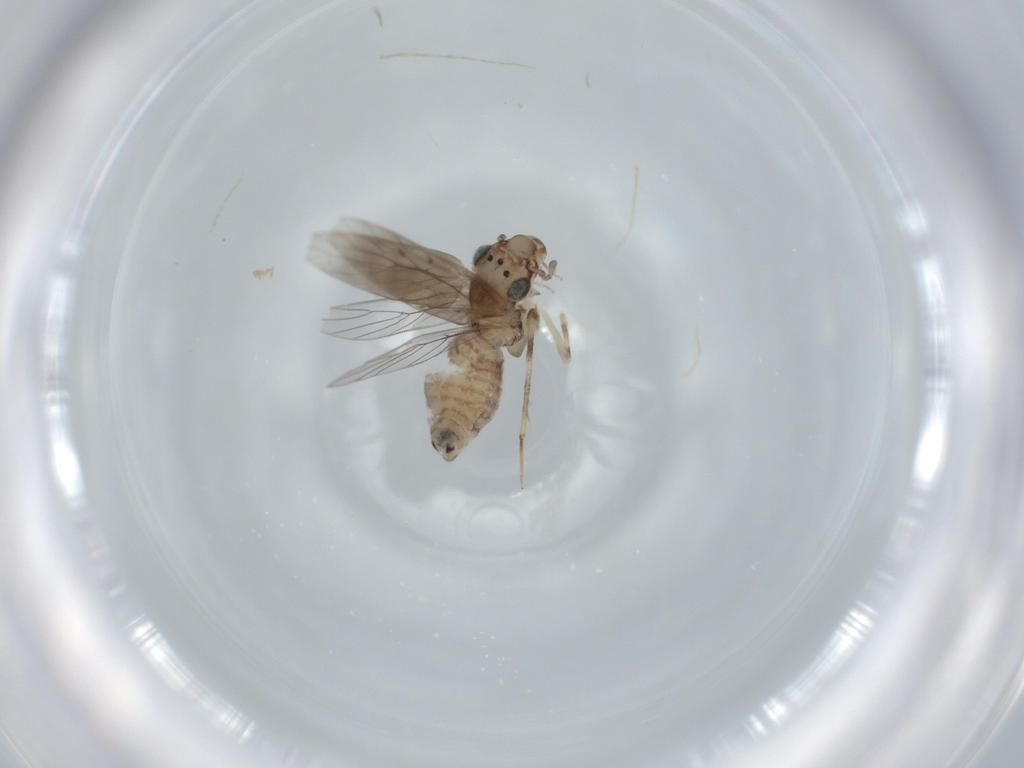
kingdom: Animalia
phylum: Arthropoda
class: Insecta
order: Psocodea
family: Lepidopsocidae
